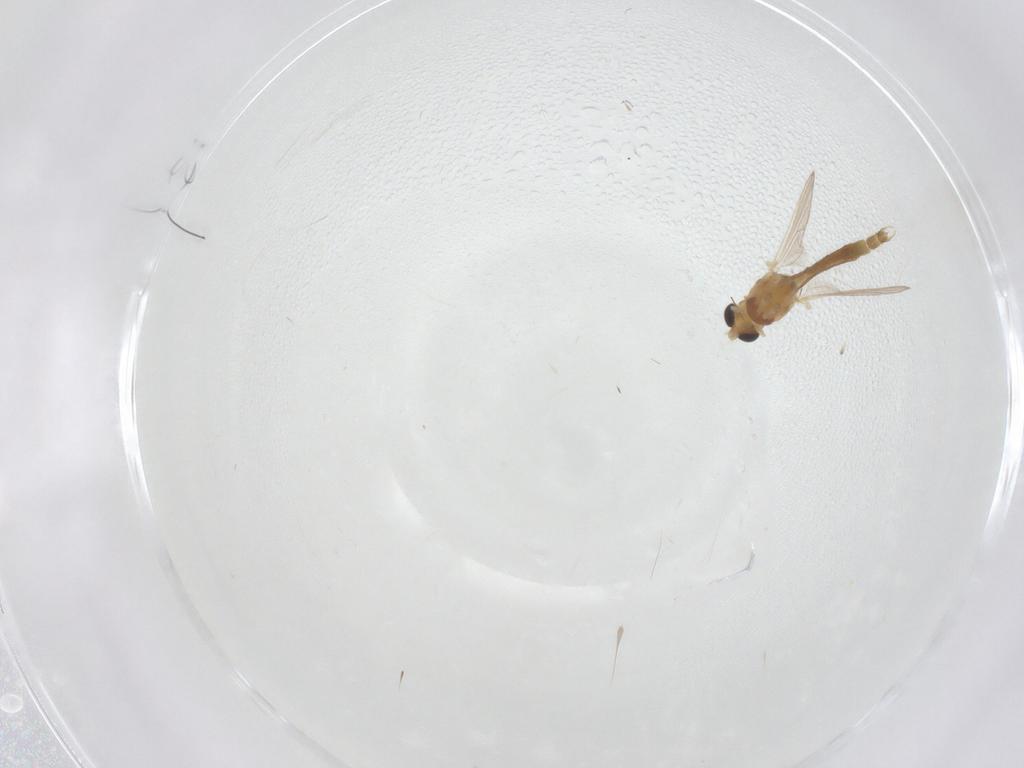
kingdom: Animalia
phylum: Arthropoda
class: Insecta
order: Diptera
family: Chironomidae
